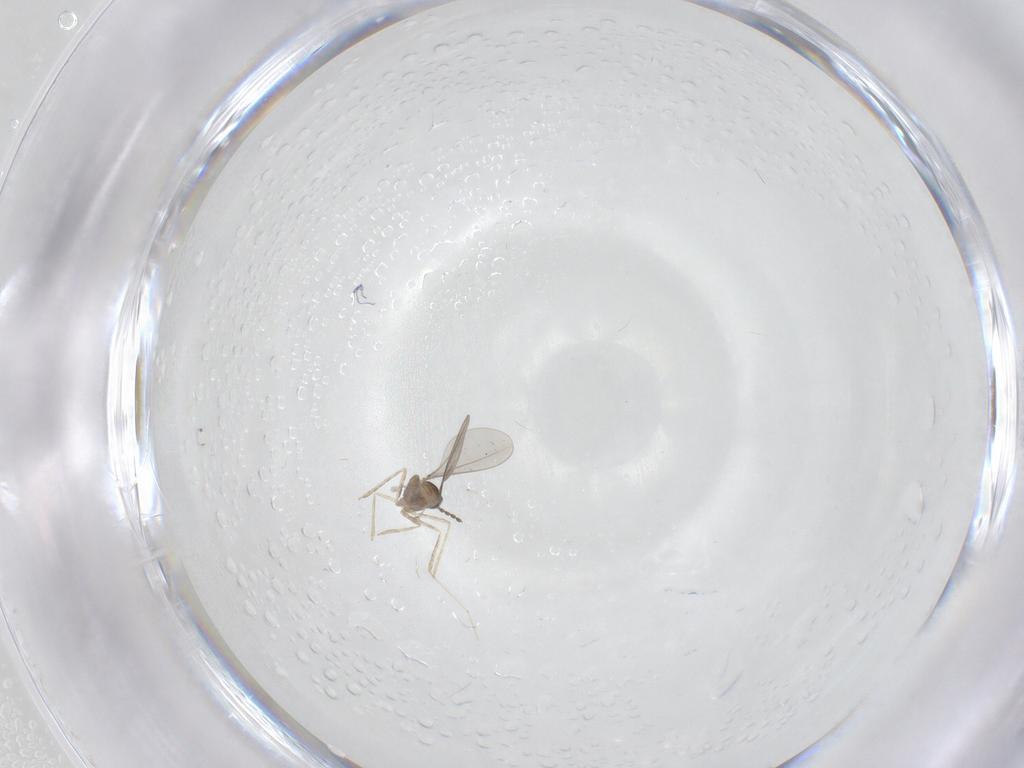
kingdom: Animalia
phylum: Arthropoda
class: Insecta
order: Diptera
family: Psychodidae
